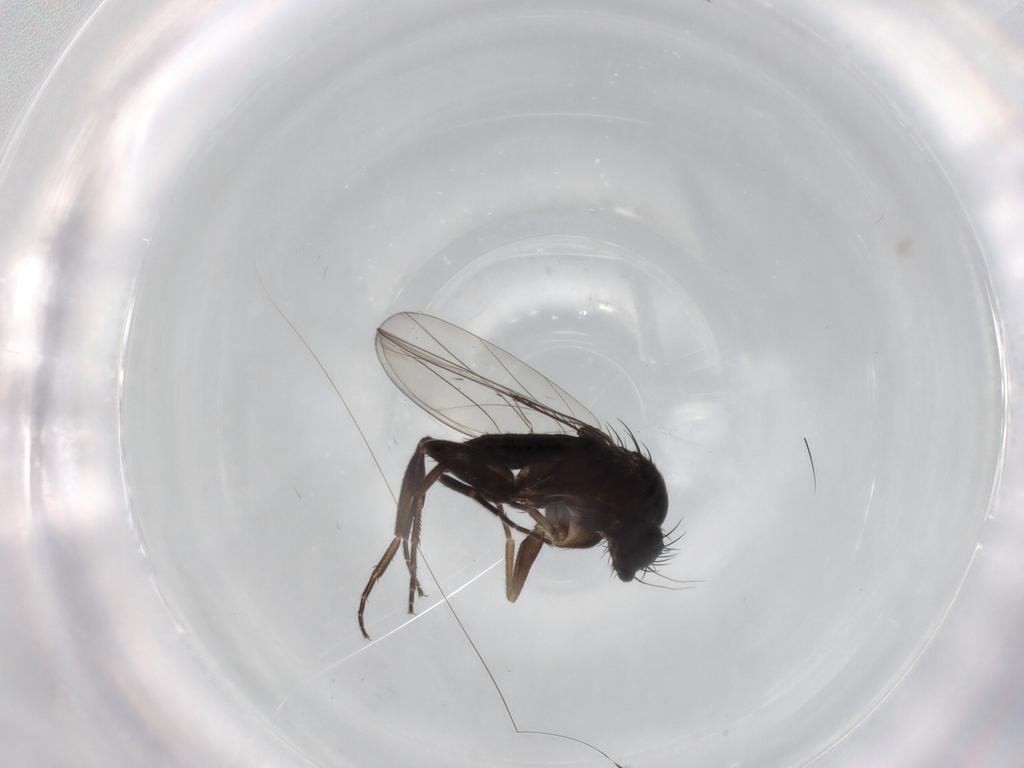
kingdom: Animalia
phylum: Arthropoda
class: Insecta
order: Diptera
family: Phoridae
